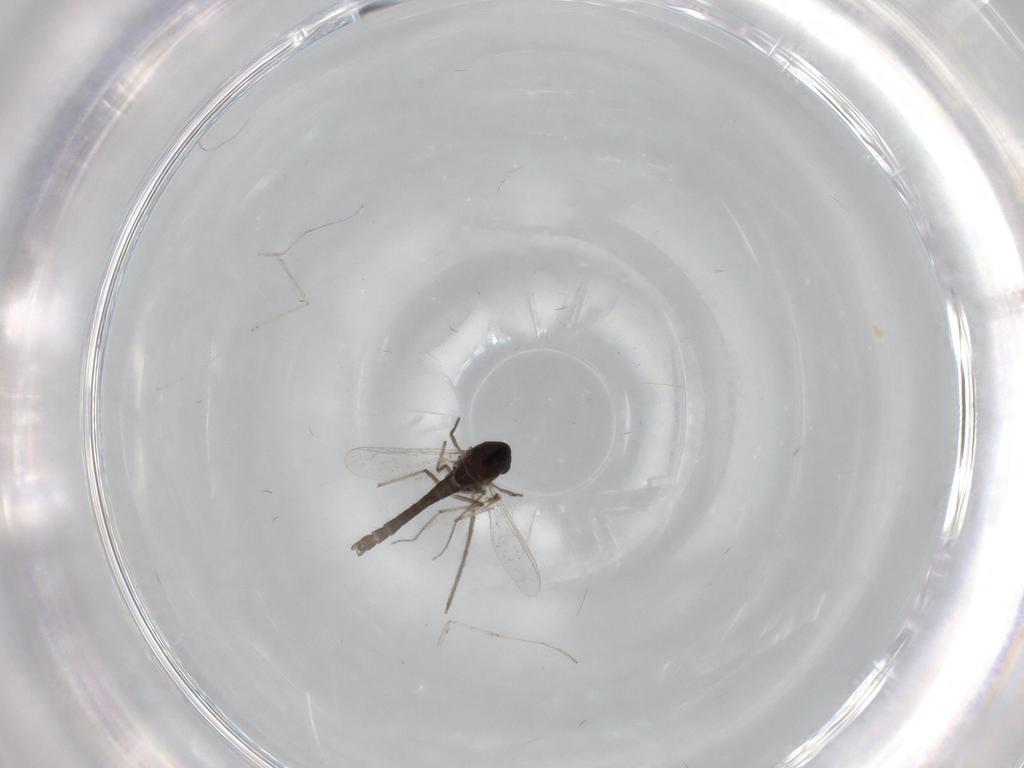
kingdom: Animalia
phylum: Arthropoda
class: Insecta
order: Diptera
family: Chironomidae
